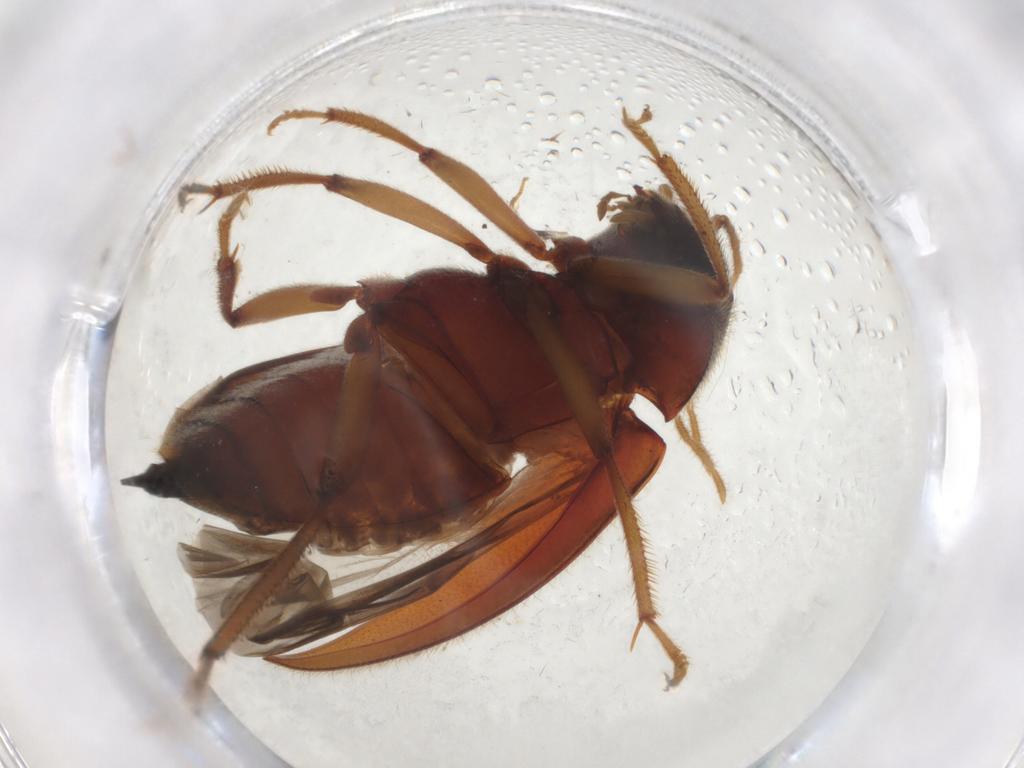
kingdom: Animalia
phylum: Arthropoda
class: Insecta
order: Coleoptera
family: Ptilodactylidae
